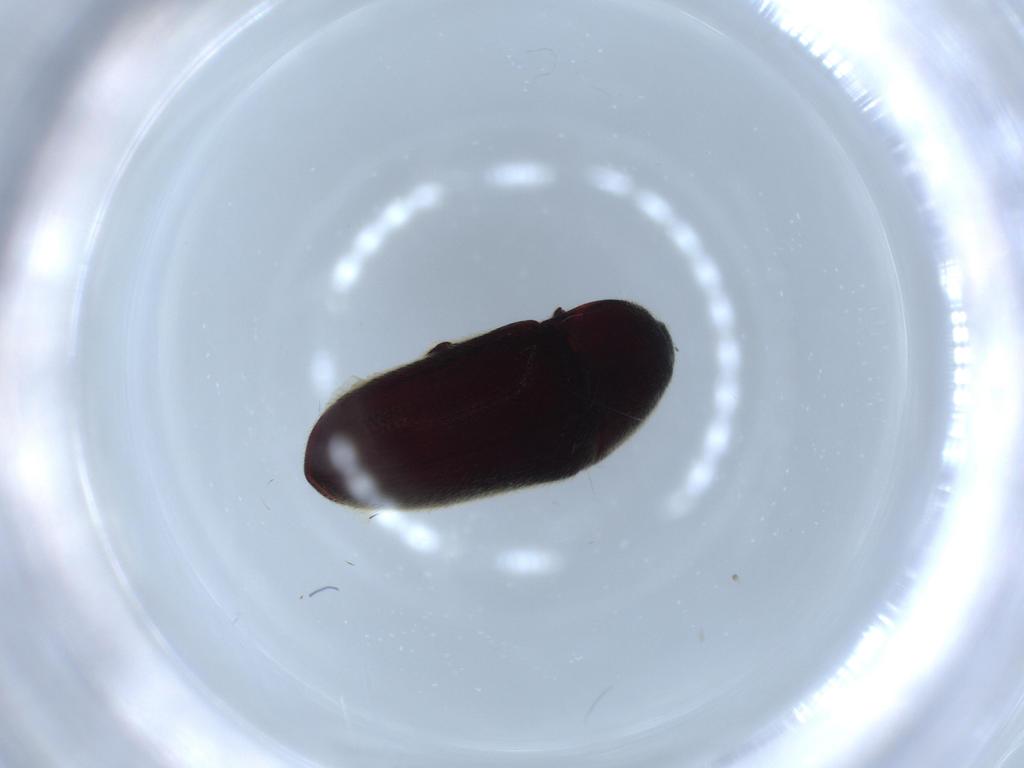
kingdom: Animalia
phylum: Arthropoda
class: Insecta
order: Coleoptera
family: Throscidae
